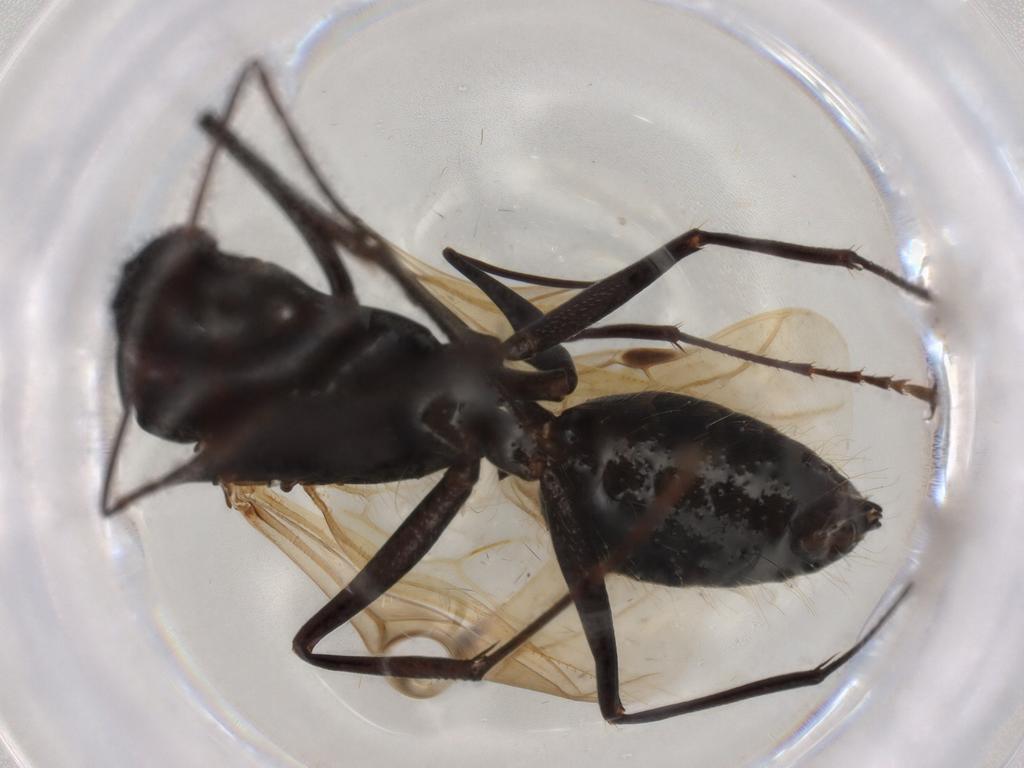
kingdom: Animalia
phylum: Arthropoda
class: Insecta
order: Hymenoptera
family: Formicidae
